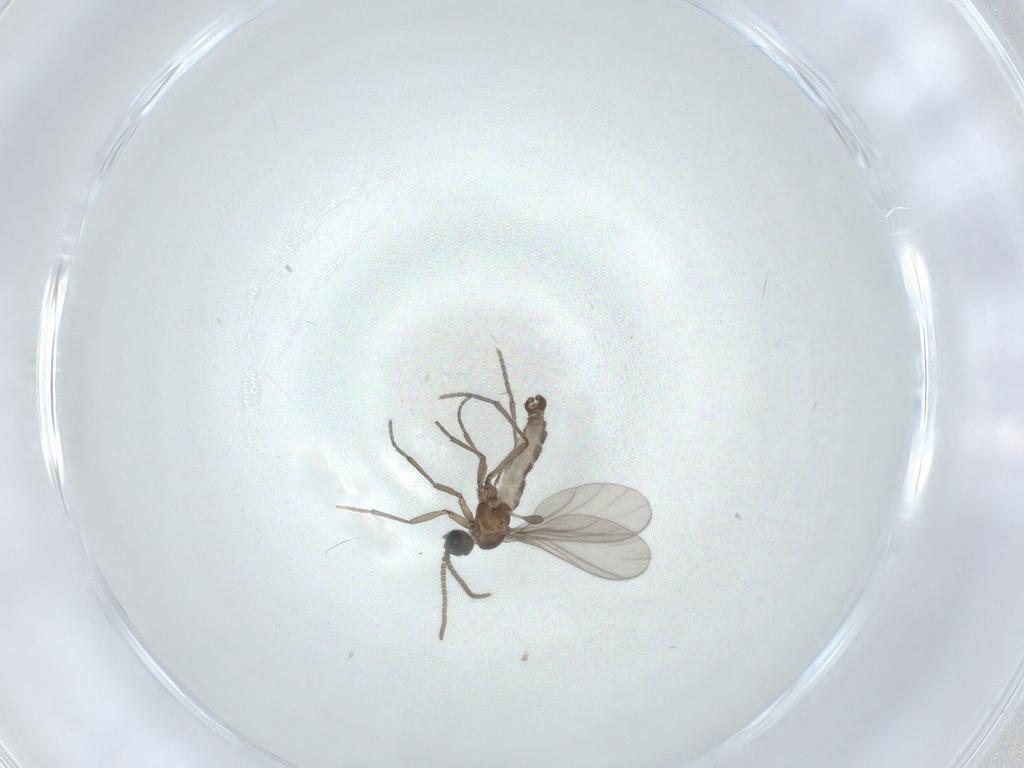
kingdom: Animalia
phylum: Arthropoda
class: Insecta
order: Diptera
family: Sciaridae
